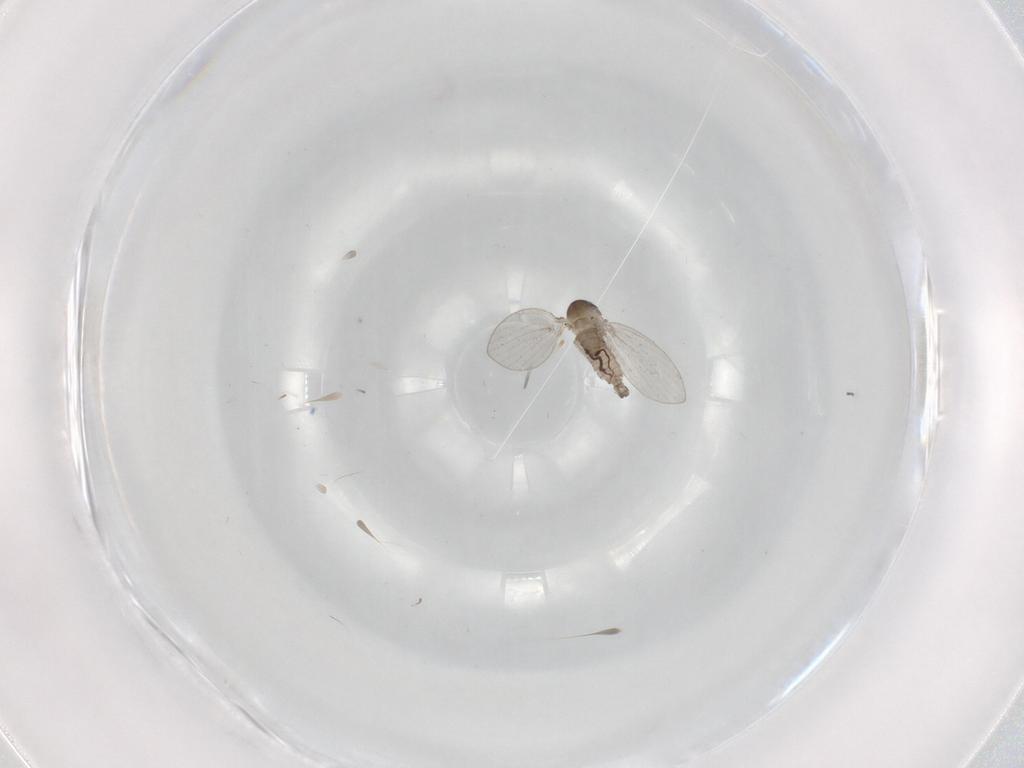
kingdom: Animalia
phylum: Arthropoda
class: Insecta
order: Diptera
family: Psychodidae
